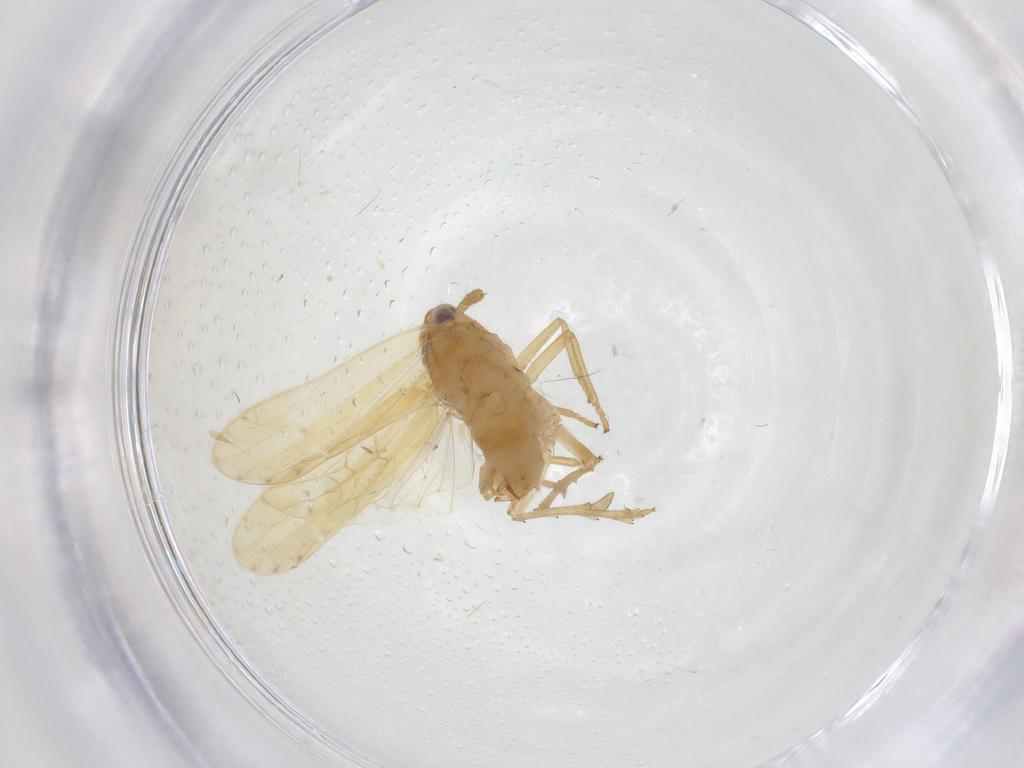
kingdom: Animalia
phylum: Arthropoda
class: Insecta
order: Hemiptera
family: Delphacidae
